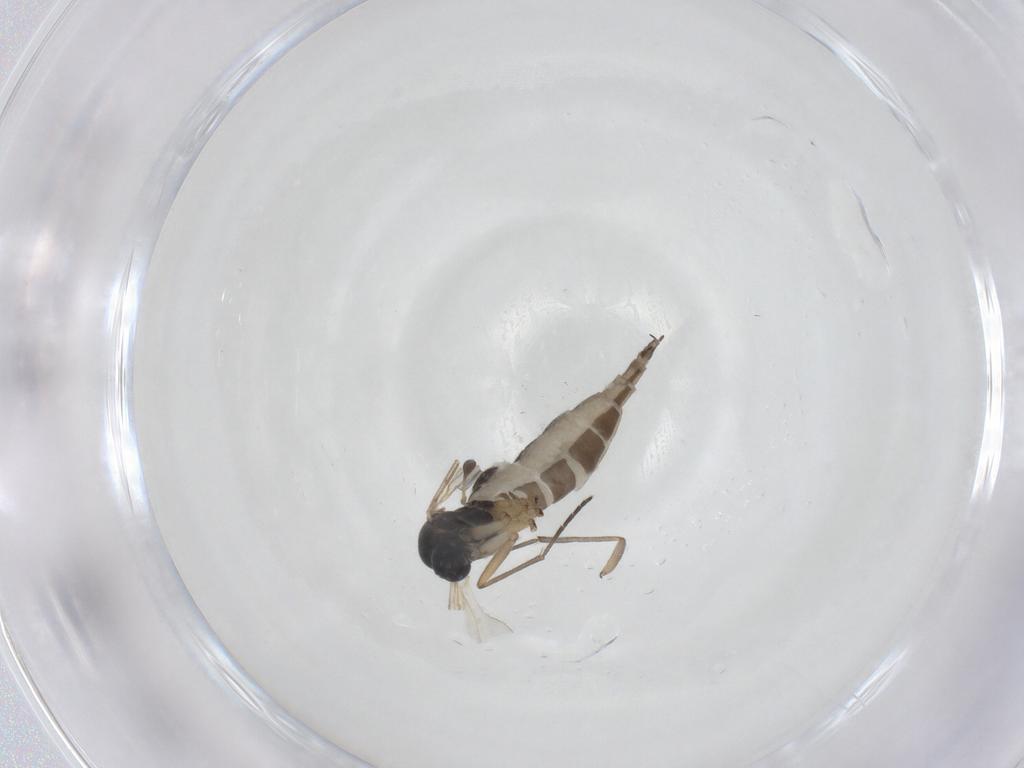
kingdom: Animalia
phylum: Arthropoda
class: Insecta
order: Diptera
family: Sciaridae
